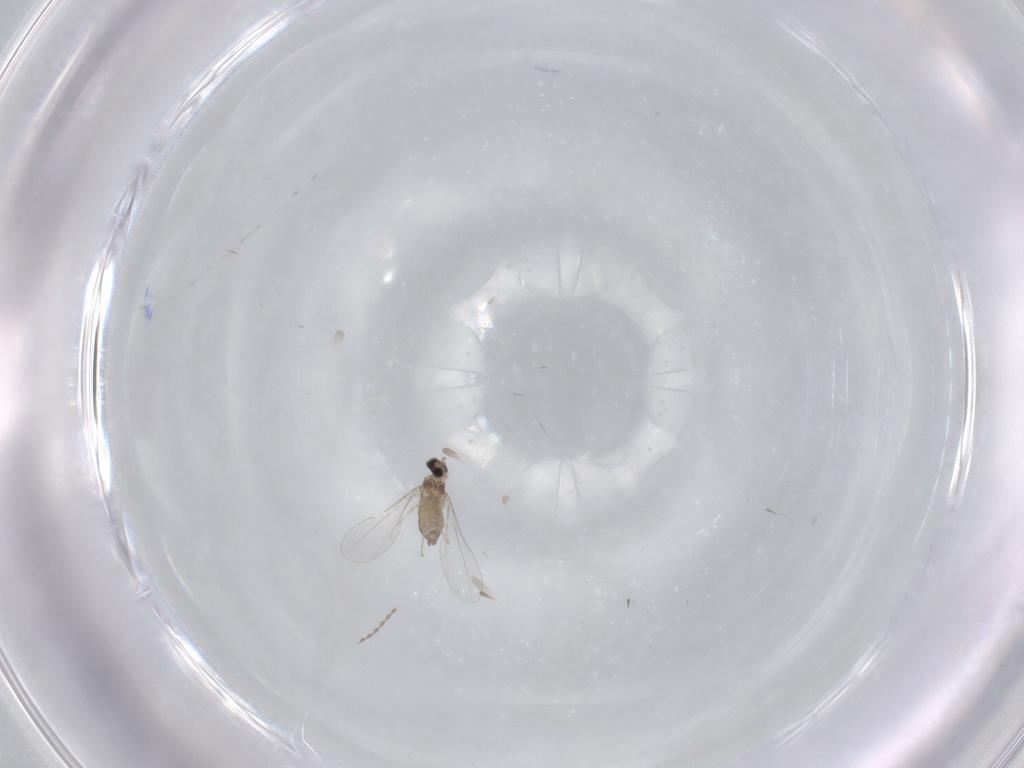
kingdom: Animalia
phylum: Arthropoda
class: Insecta
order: Diptera
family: Psychodidae
